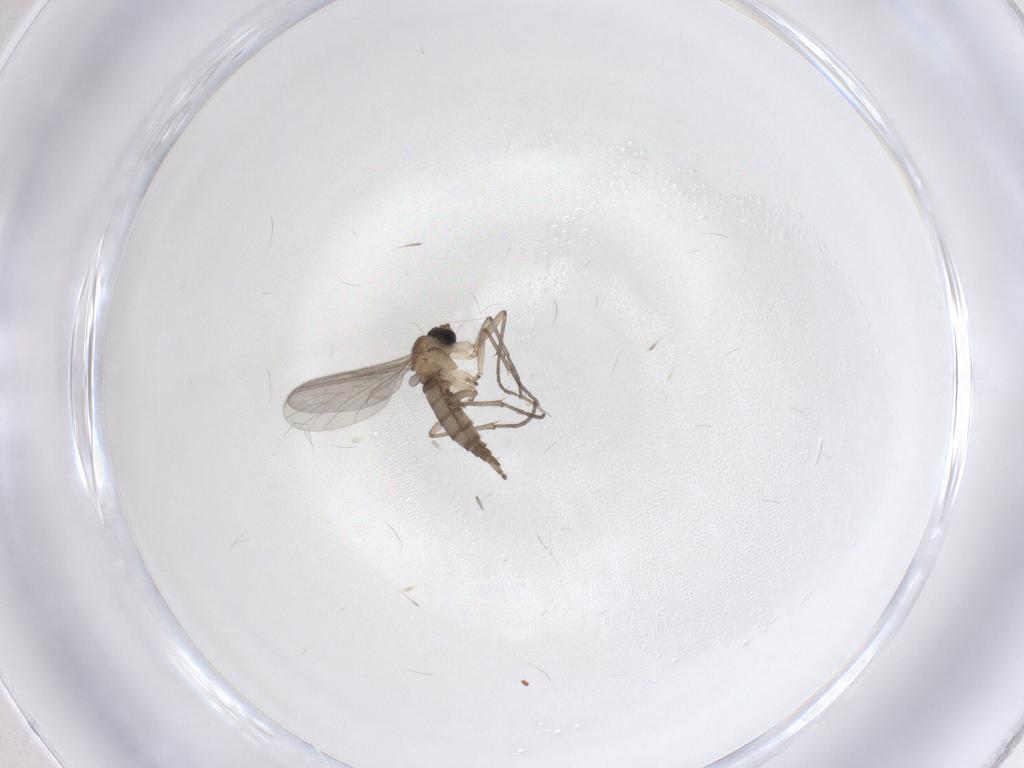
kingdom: Animalia
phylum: Arthropoda
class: Insecta
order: Diptera
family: Sciaridae
